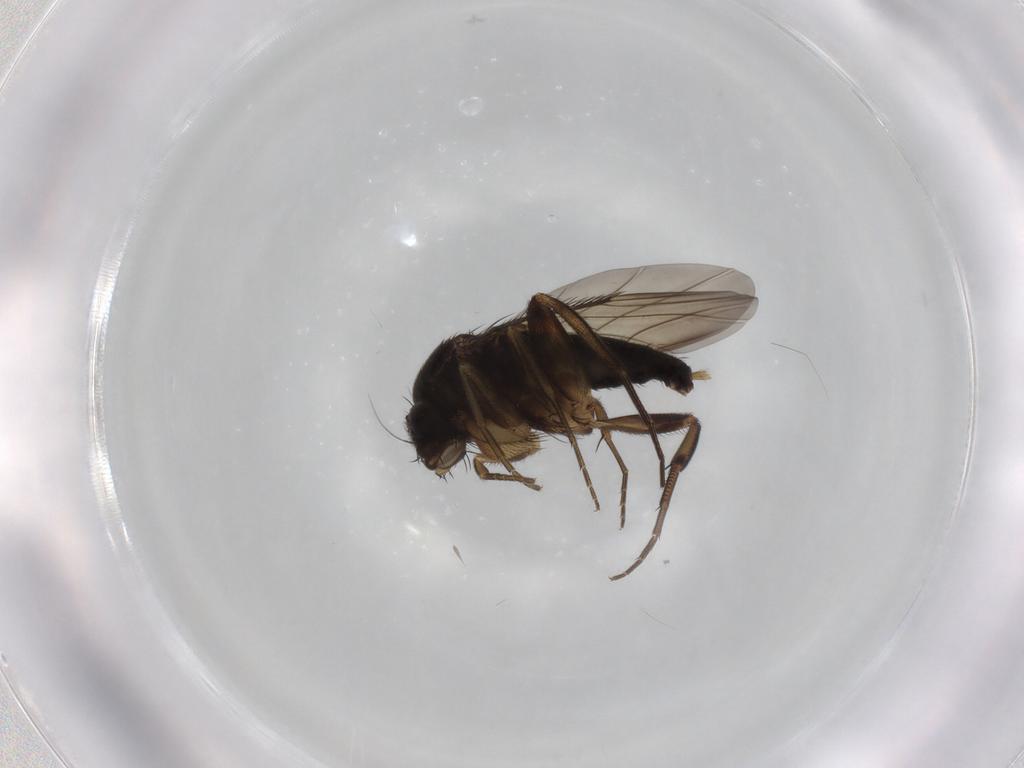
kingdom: Animalia
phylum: Arthropoda
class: Insecta
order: Diptera
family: Phoridae
